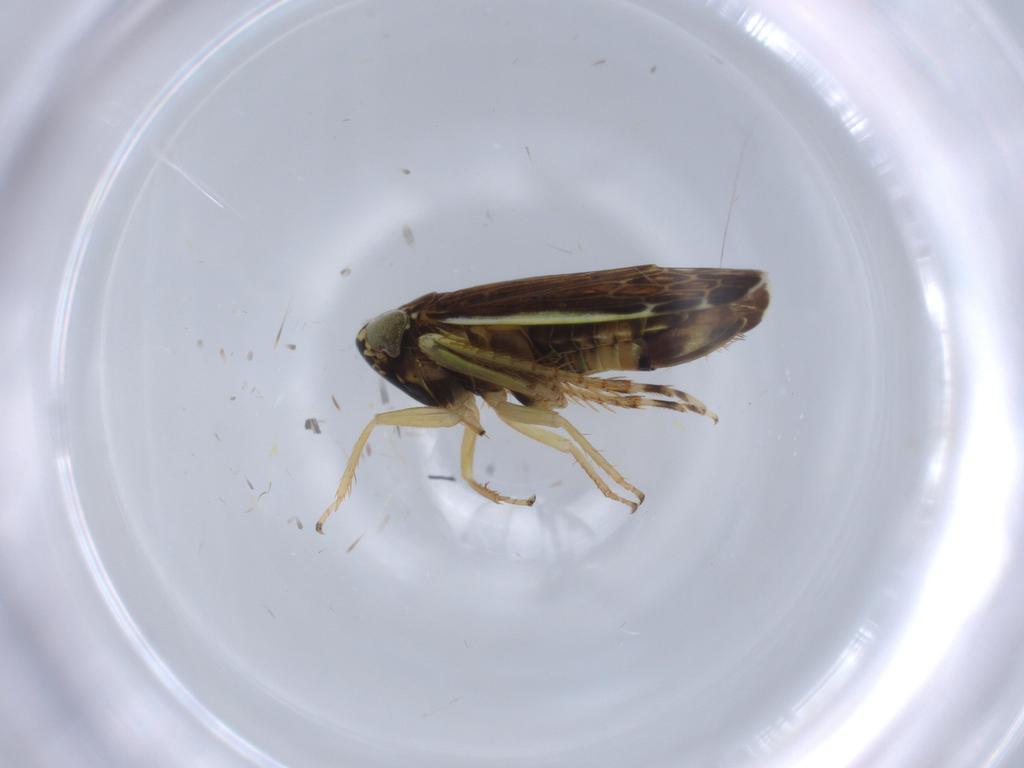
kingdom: Animalia
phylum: Arthropoda
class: Insecta
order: Hemiptera
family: Cicadellidae
